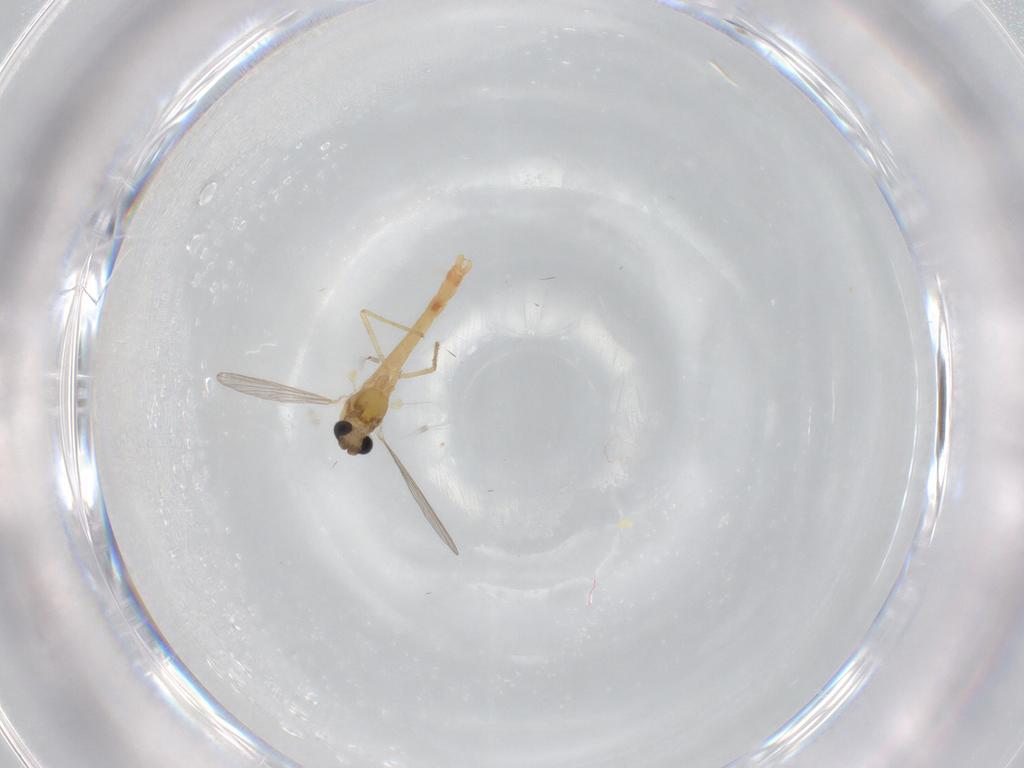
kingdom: Animalia
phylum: Arthropoda
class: Insecta
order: Diptera
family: Chironomidae
